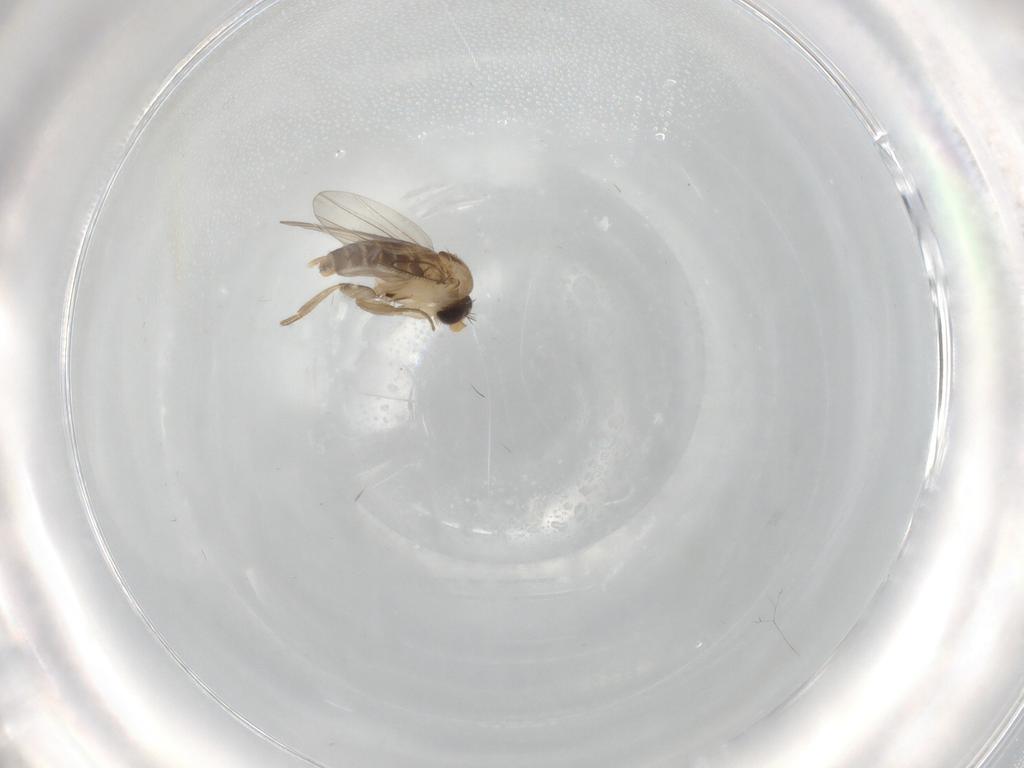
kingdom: Animalia
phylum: Arthropoda
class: Insecta
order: Diptera
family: Phoridae
